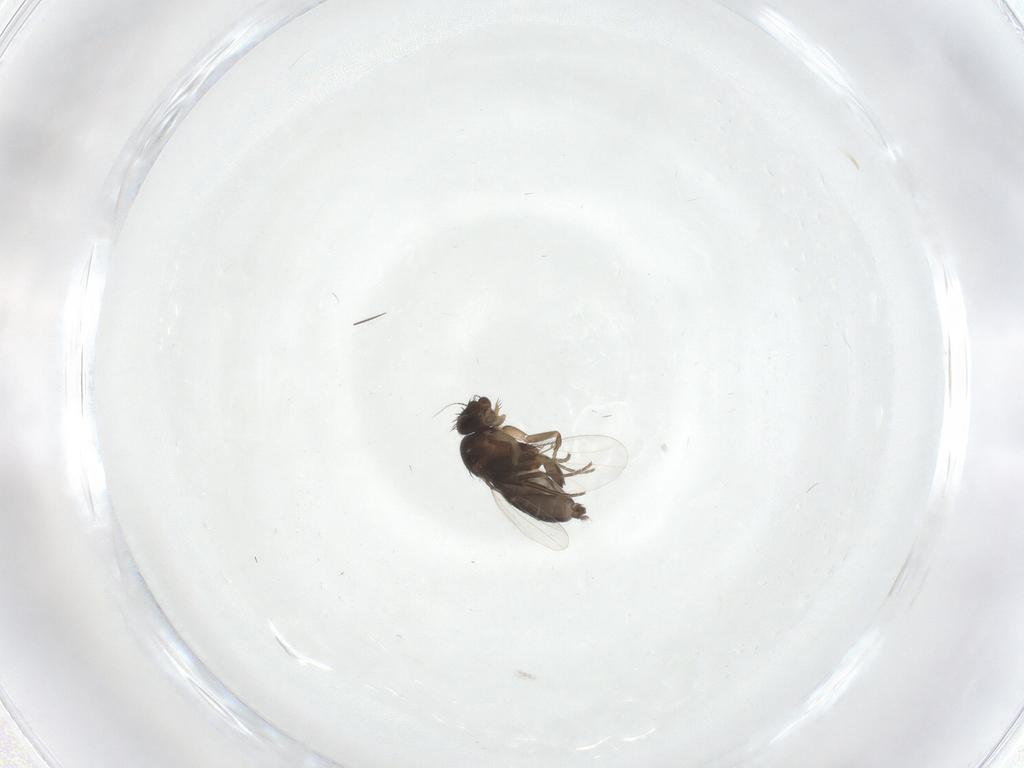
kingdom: Animalia
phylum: Arthropoda
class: Insecta
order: Diptera
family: Phoridae
